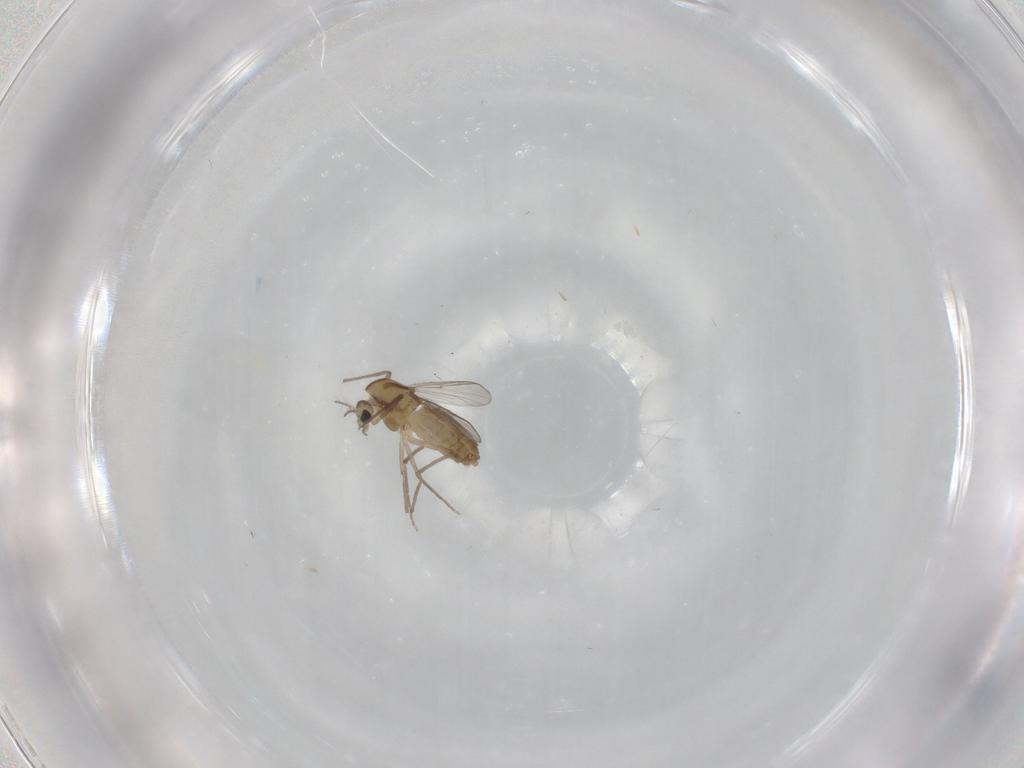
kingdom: Animalia
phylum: Arthropoda
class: Insecta
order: Diptera
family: Chironomidae
